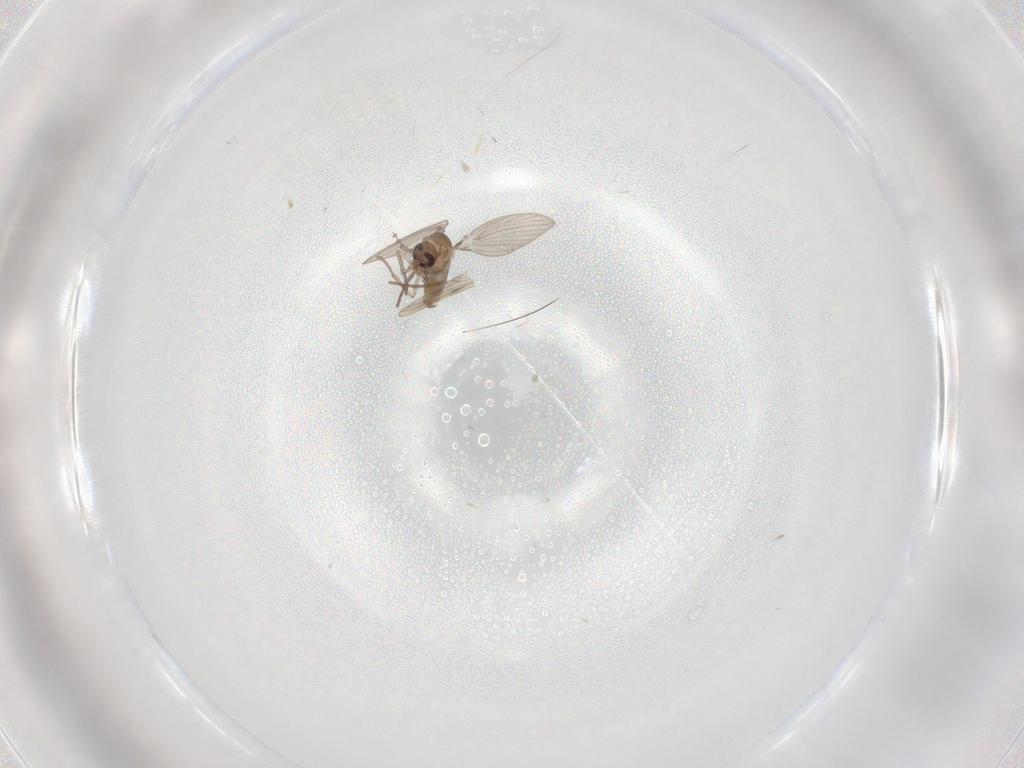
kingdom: Animalia
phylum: Arthropoda
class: Insecta
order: Diptera
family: Psychodidae
